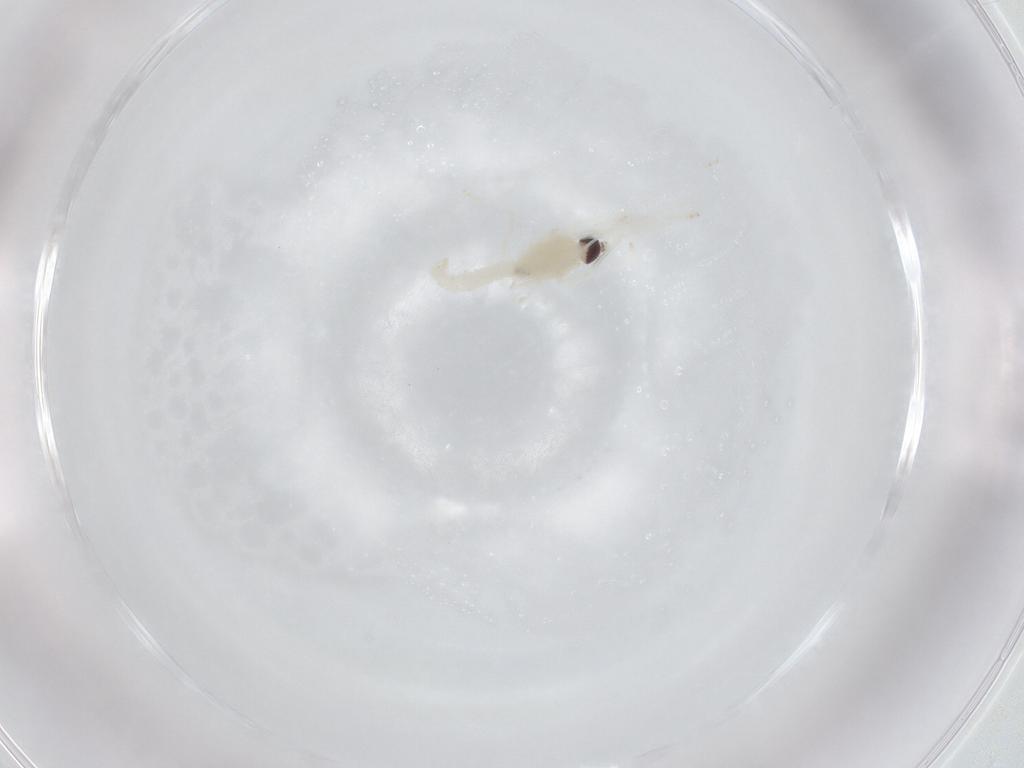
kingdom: Animalia
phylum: Arthropoda
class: Insecta
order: Diptera
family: Cecidomyiidae
